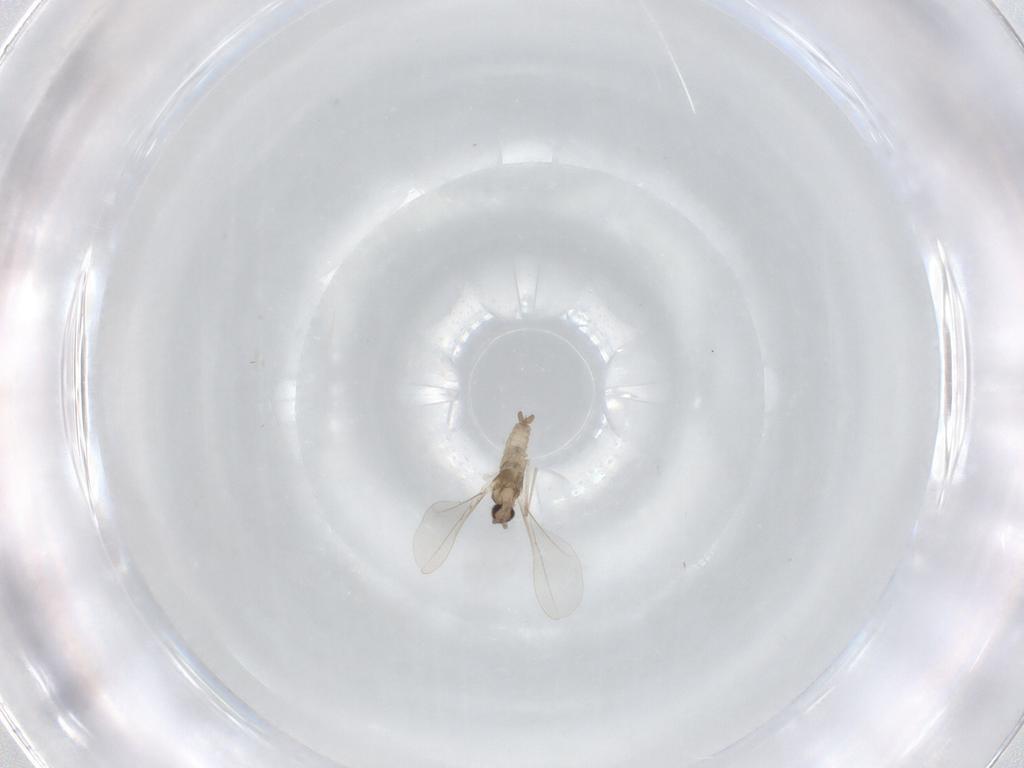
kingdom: Animalia
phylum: Arthropoda
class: Insecta
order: Diptera
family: Muscidae
